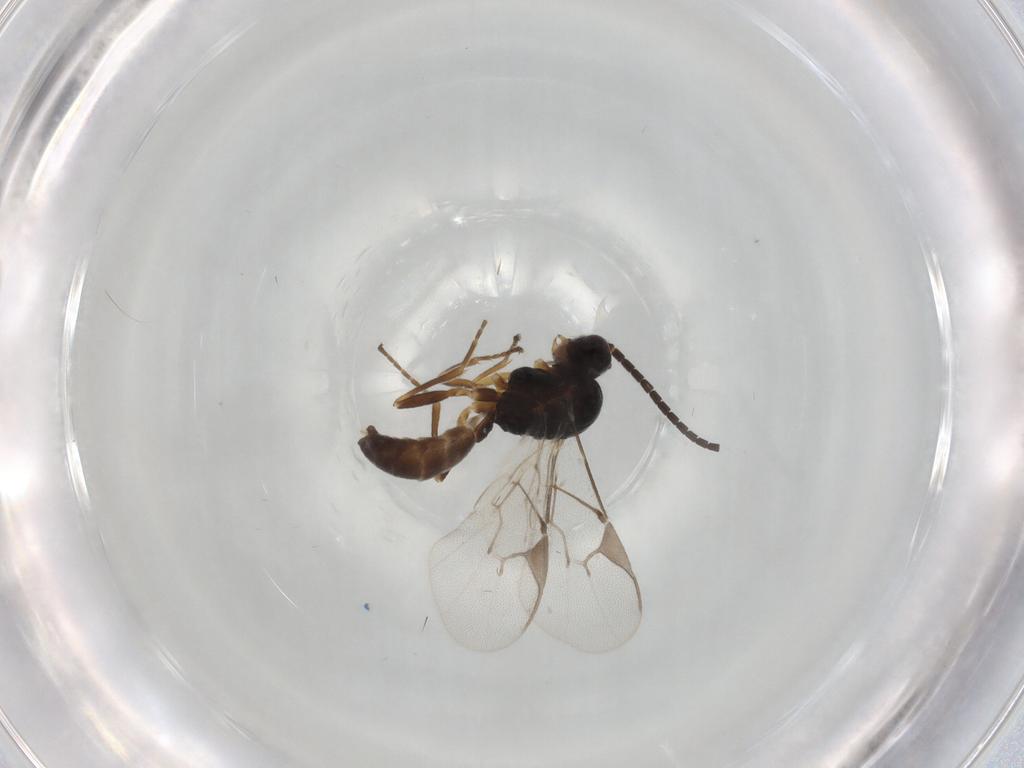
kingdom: Animalia
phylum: Arthropoda
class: Insecta
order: Hymenoptera
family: Braconidae
